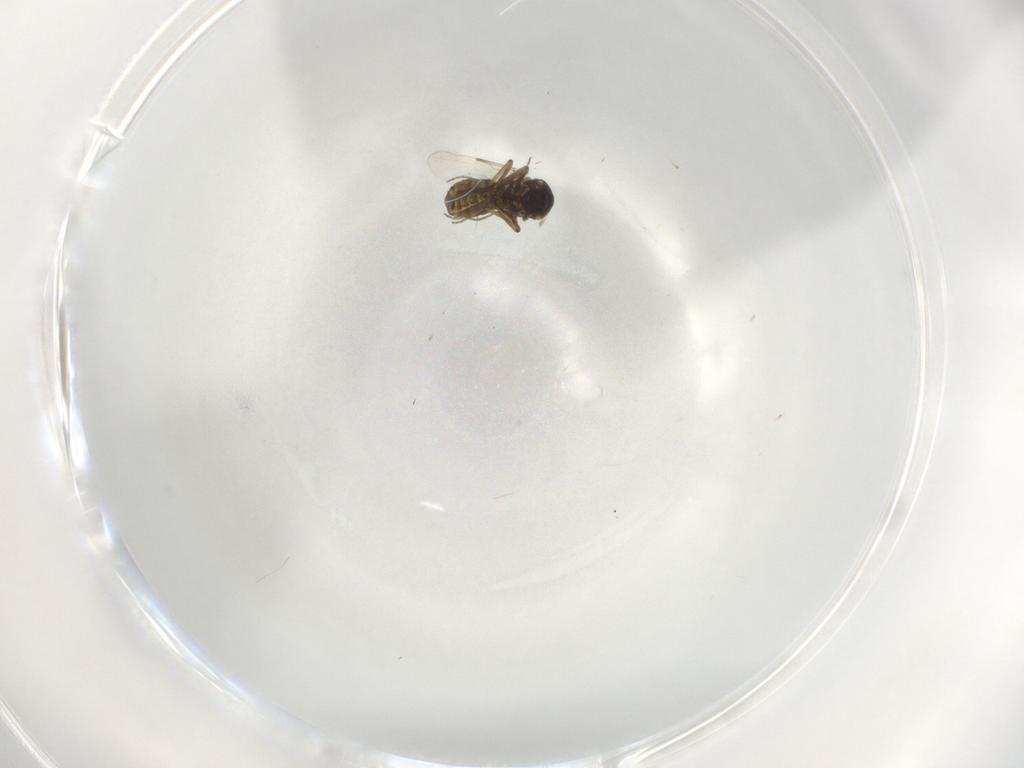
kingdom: Animalia
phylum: Arthropoda
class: Insecta
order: Diptera
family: Ceratopogonidae
